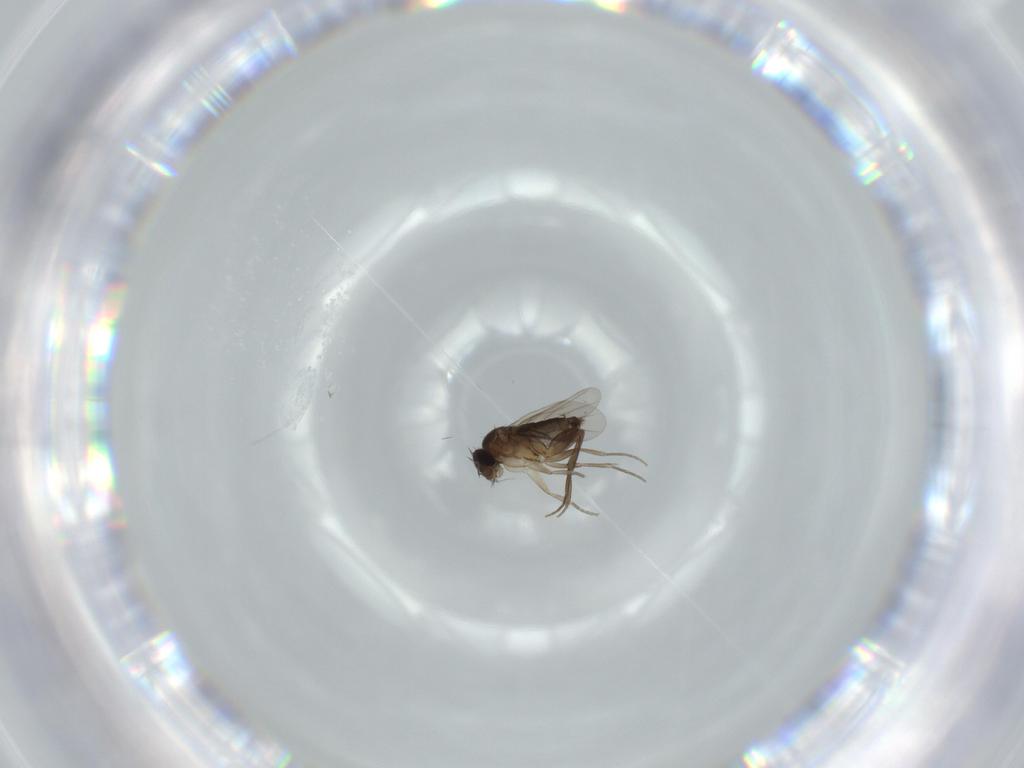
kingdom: Animalia
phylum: Arthropoda
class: Insecta
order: Diptera
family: Phoridae
